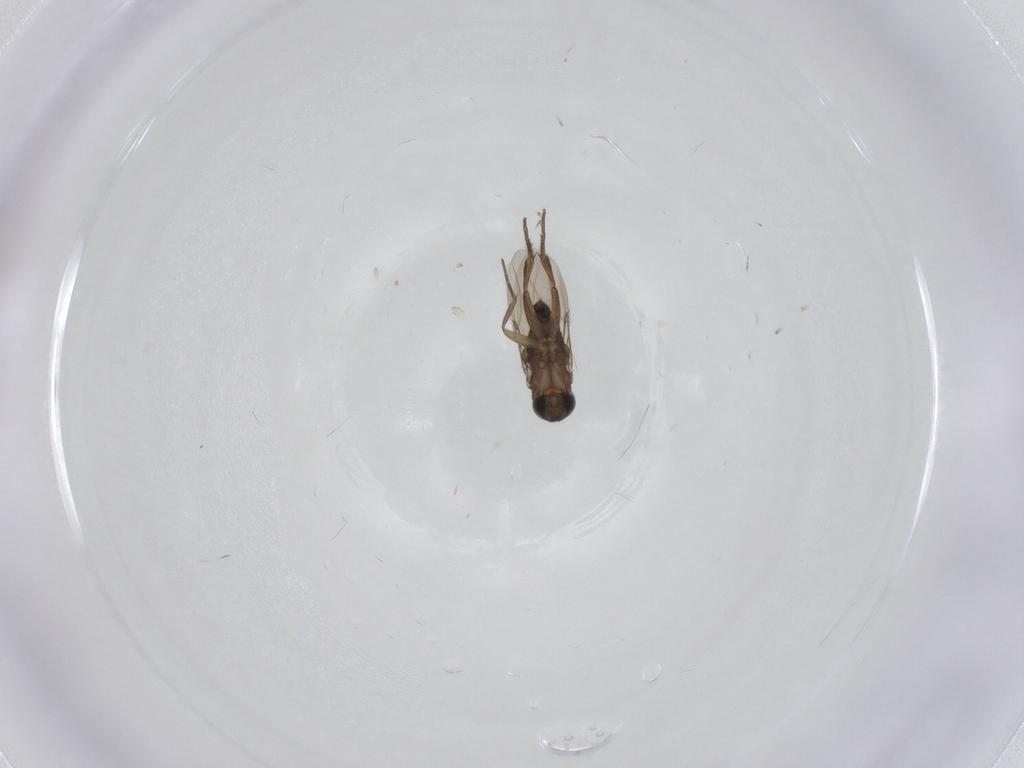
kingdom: Animalia
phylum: Arthropoda
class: Insecta
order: Diptera
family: Phoridae
